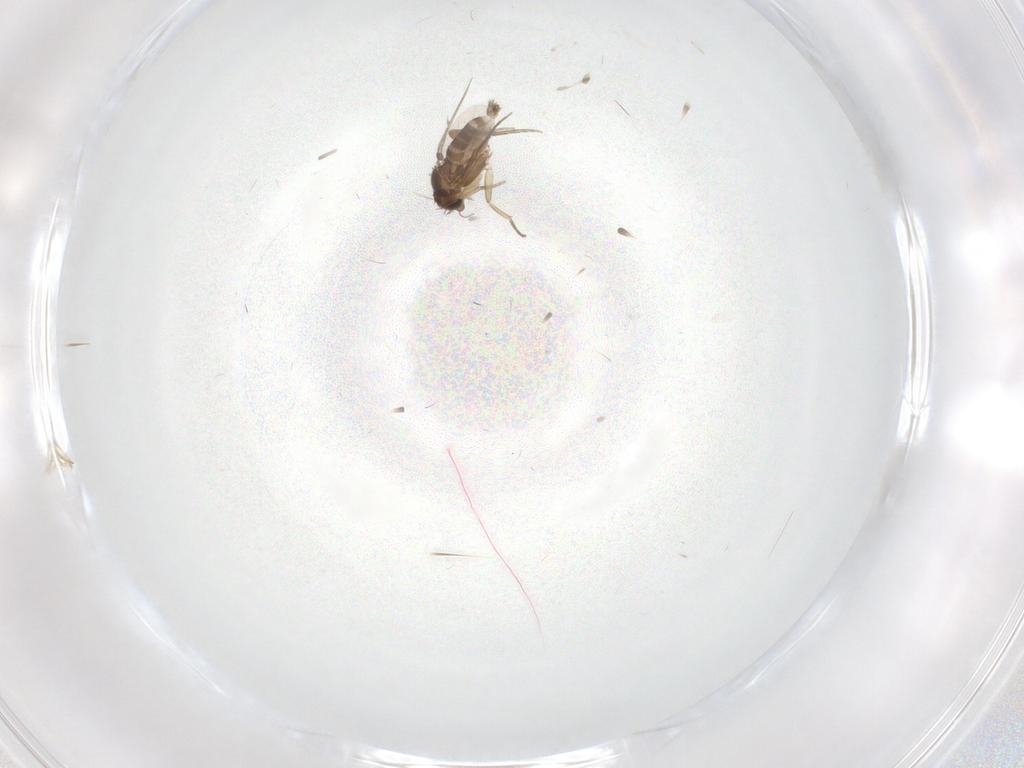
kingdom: Animalia
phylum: Arthropoda
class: Insecta
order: Diptera
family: Phoridae
